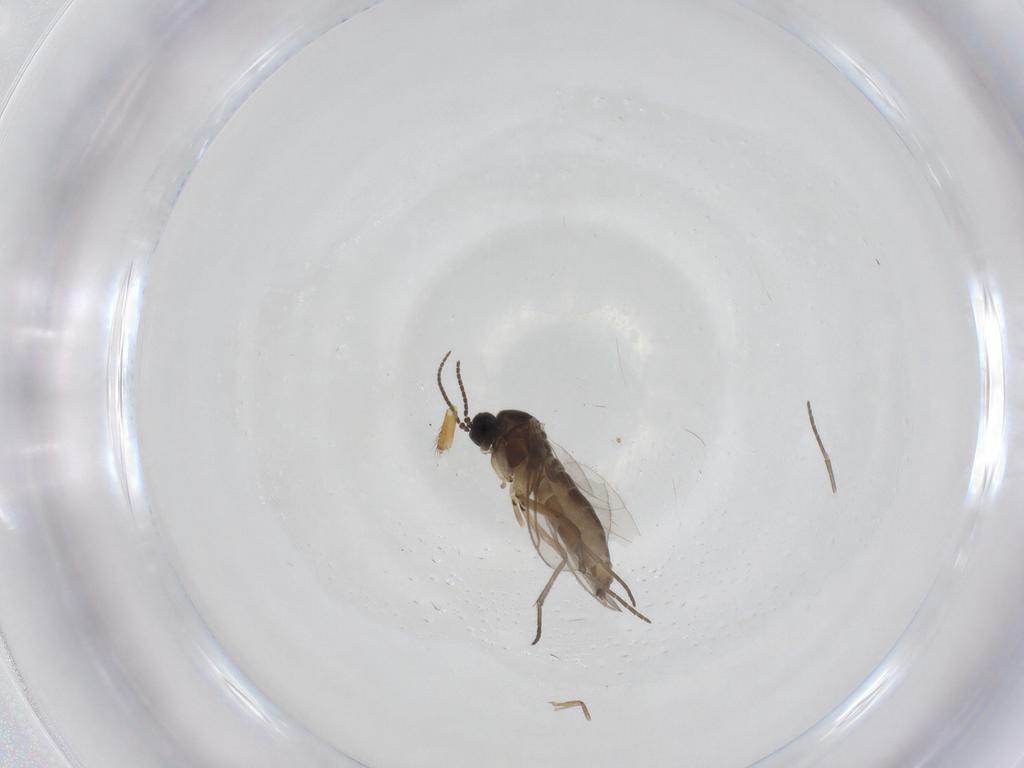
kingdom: Animalia
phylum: Arthropoda
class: Insecta
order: Diptera
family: Sciaridae
